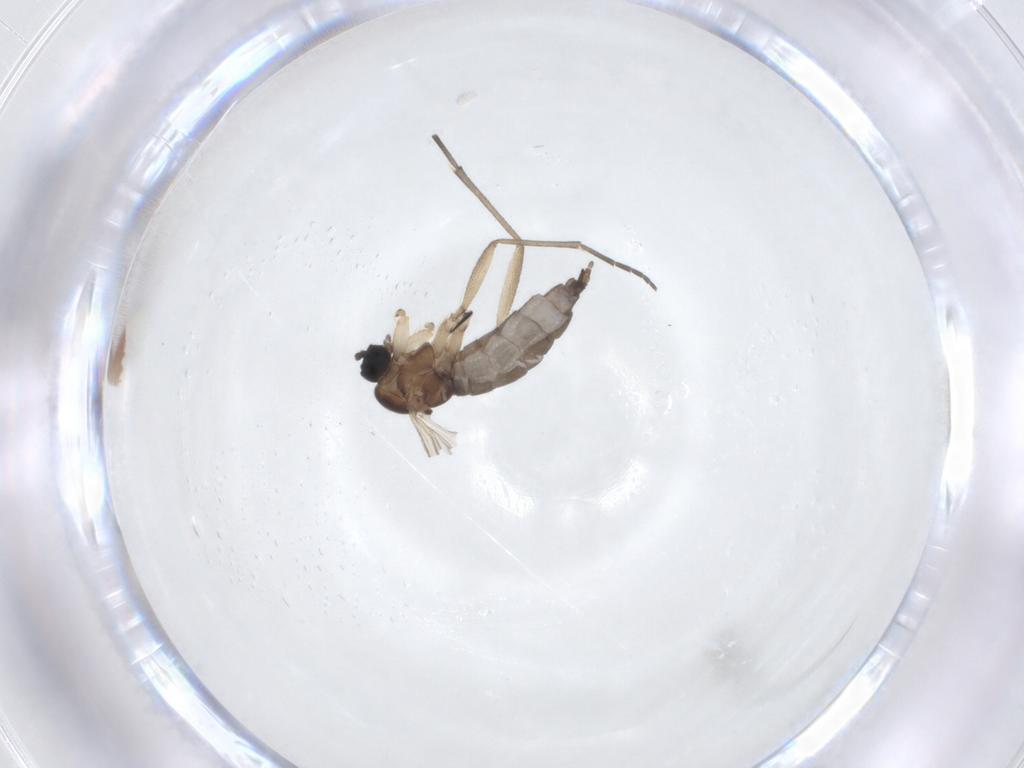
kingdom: Animalia
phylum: Arthropoda
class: Insecta
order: Diptera
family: Sciaridae
